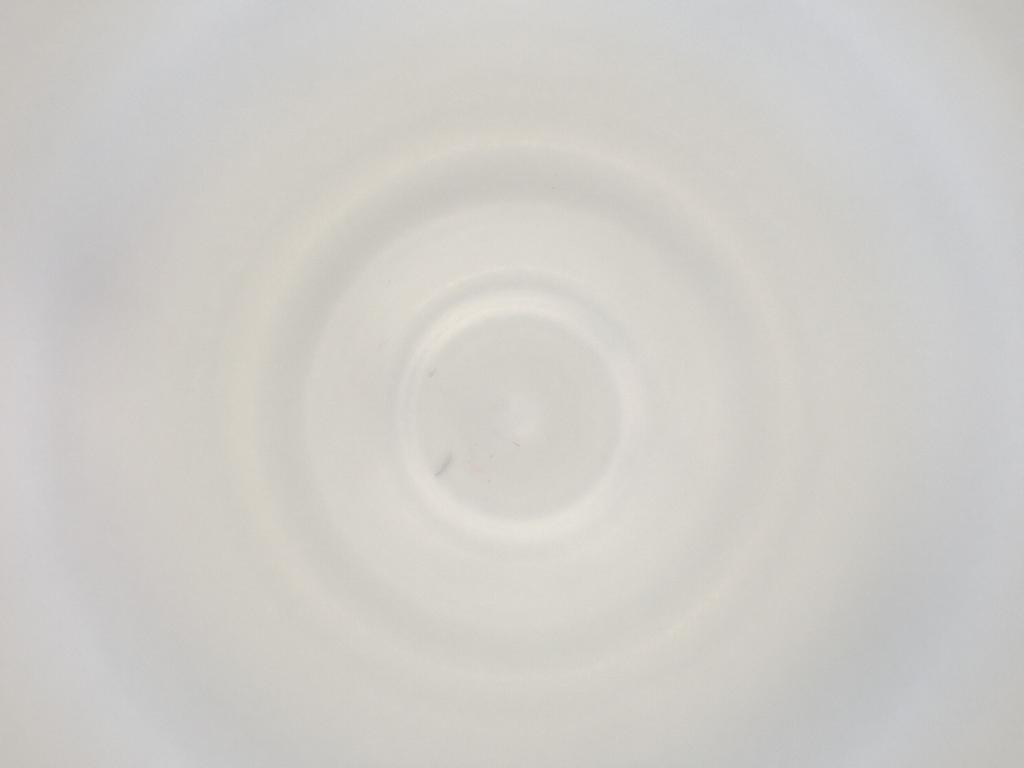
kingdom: Animalia
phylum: Arthropoda
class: Insecta
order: Diptera
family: Cecidomyiidae
